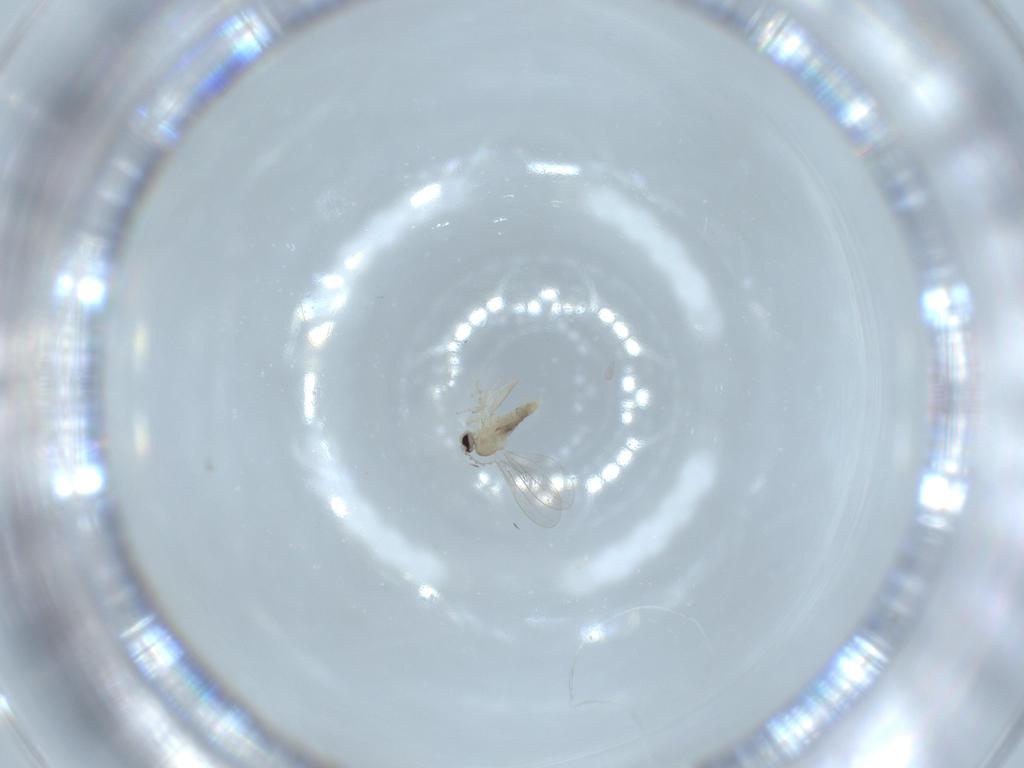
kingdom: Animalia
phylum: Arthropoda
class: Insecta
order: Diptera
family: Cecidomyiidae
